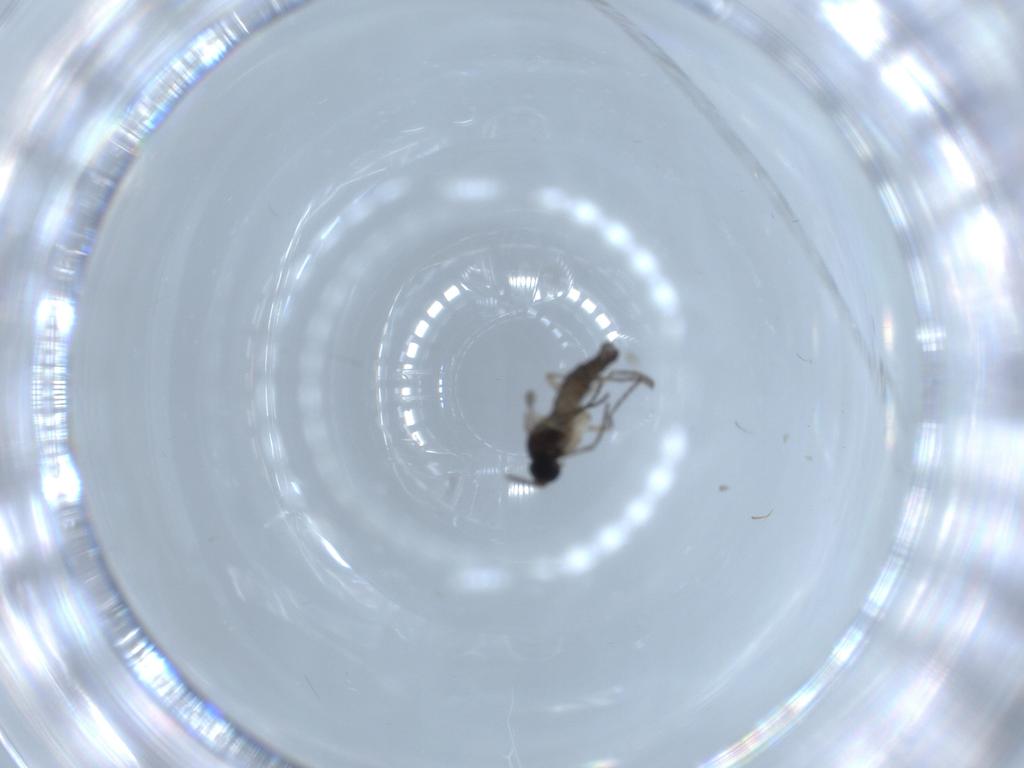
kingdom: Animalia
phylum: Arthropoda
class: Insecta
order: Diptera
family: Sciaridae
